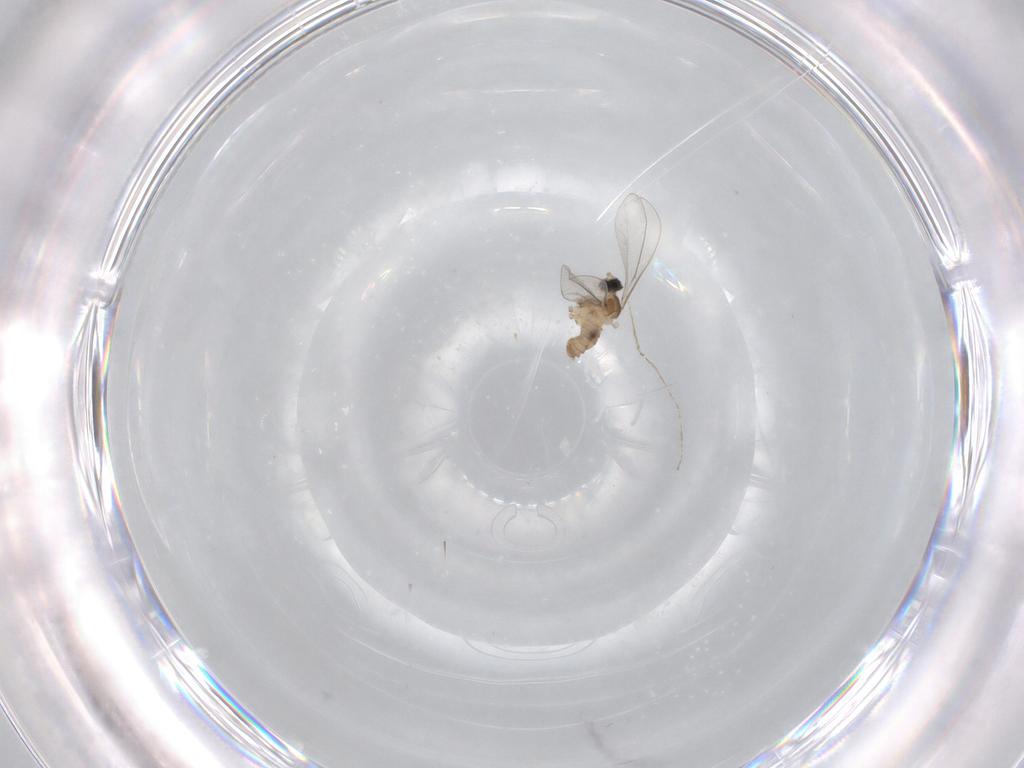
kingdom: Animalia
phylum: Arthropoda
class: Insecta
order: Diptera
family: Cecidomyiidae
